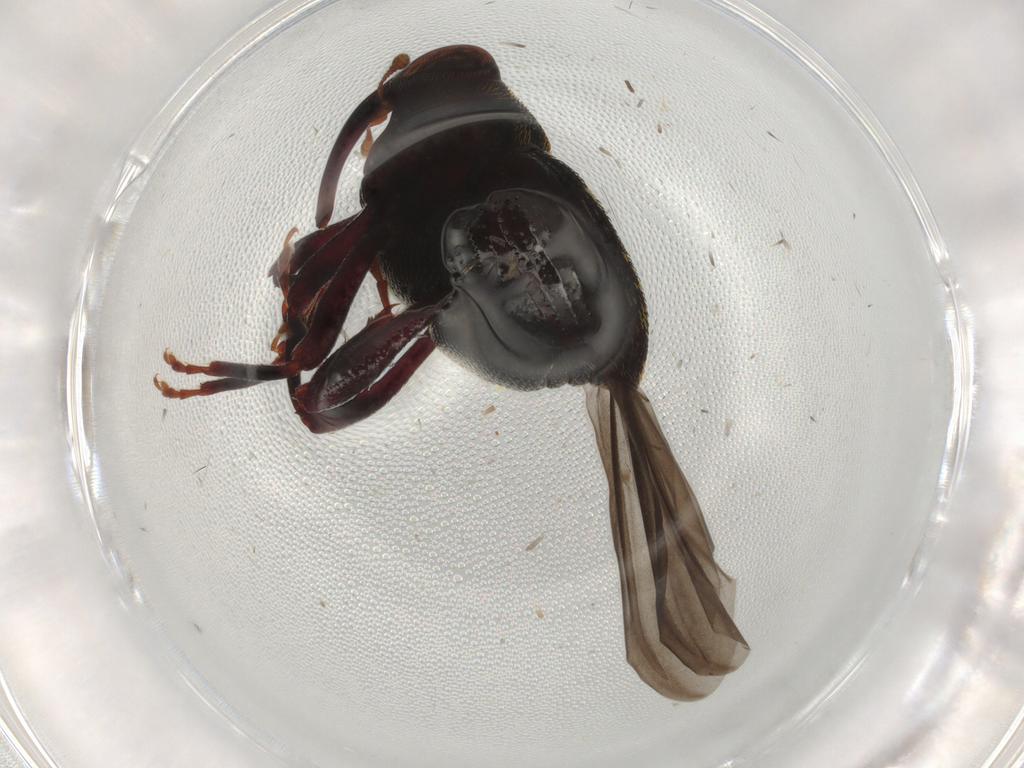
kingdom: Animalia
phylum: Arthropoda
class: Insecta
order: Coleoptera
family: Curculionidae
